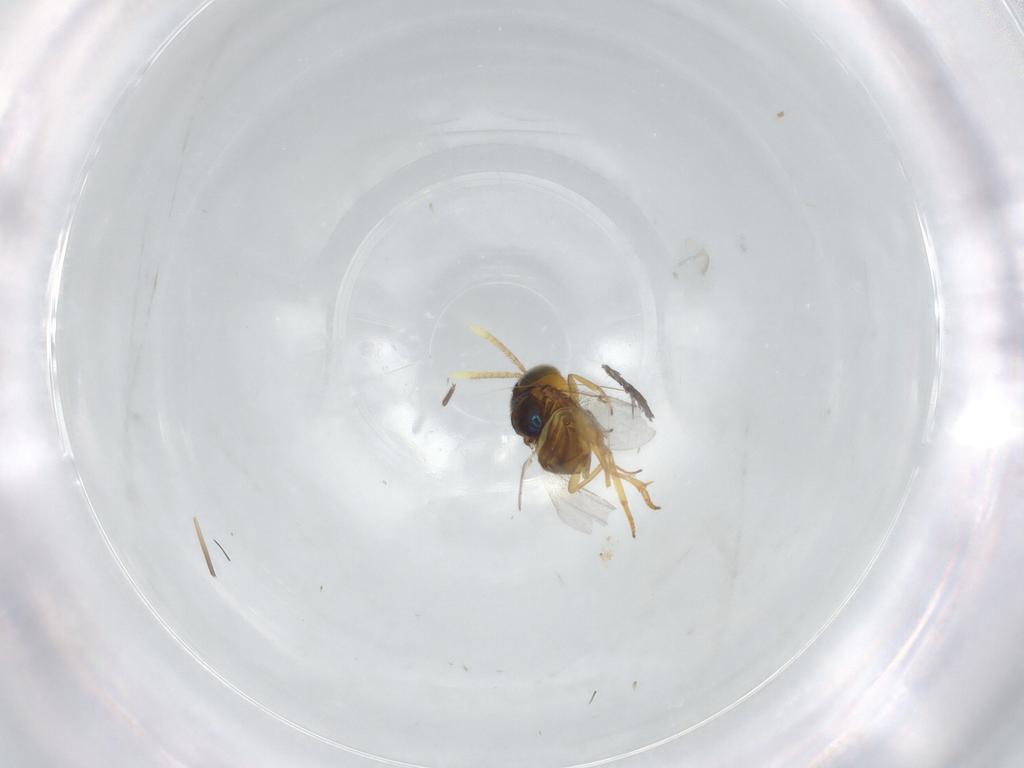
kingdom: Animalia
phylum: Arthropoda
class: Insecta
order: Hymenoptera
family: Encyrtidae
